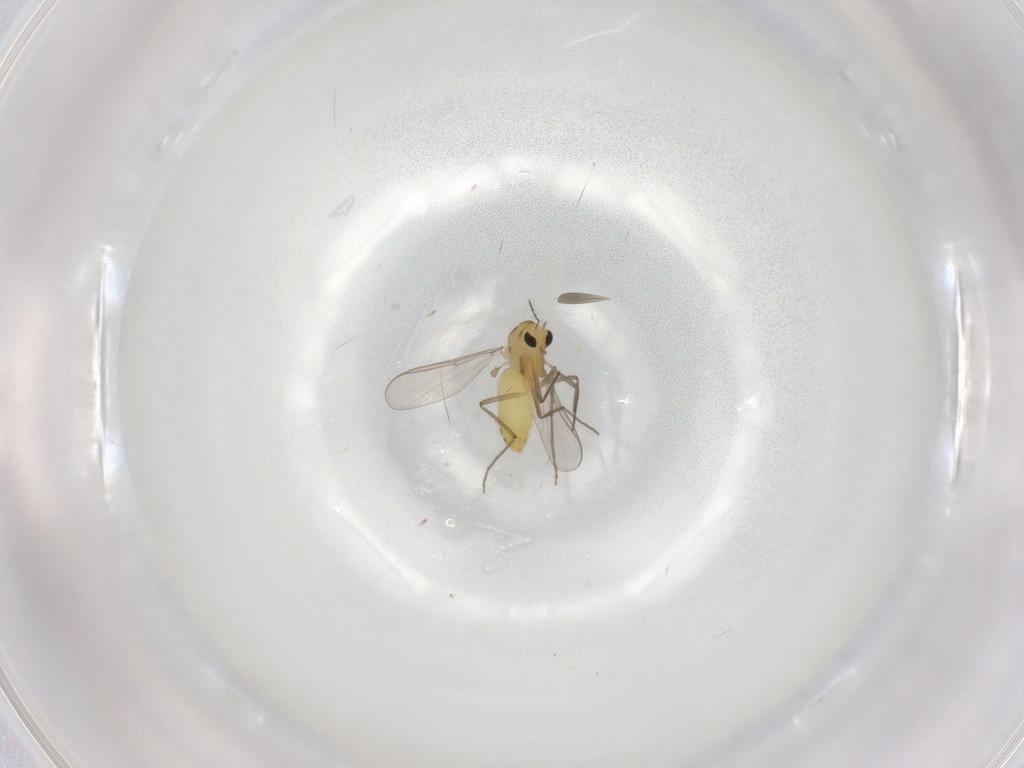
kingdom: Animalia
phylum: Arthropoda
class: Insecta
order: Diptera
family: Chironomidae
